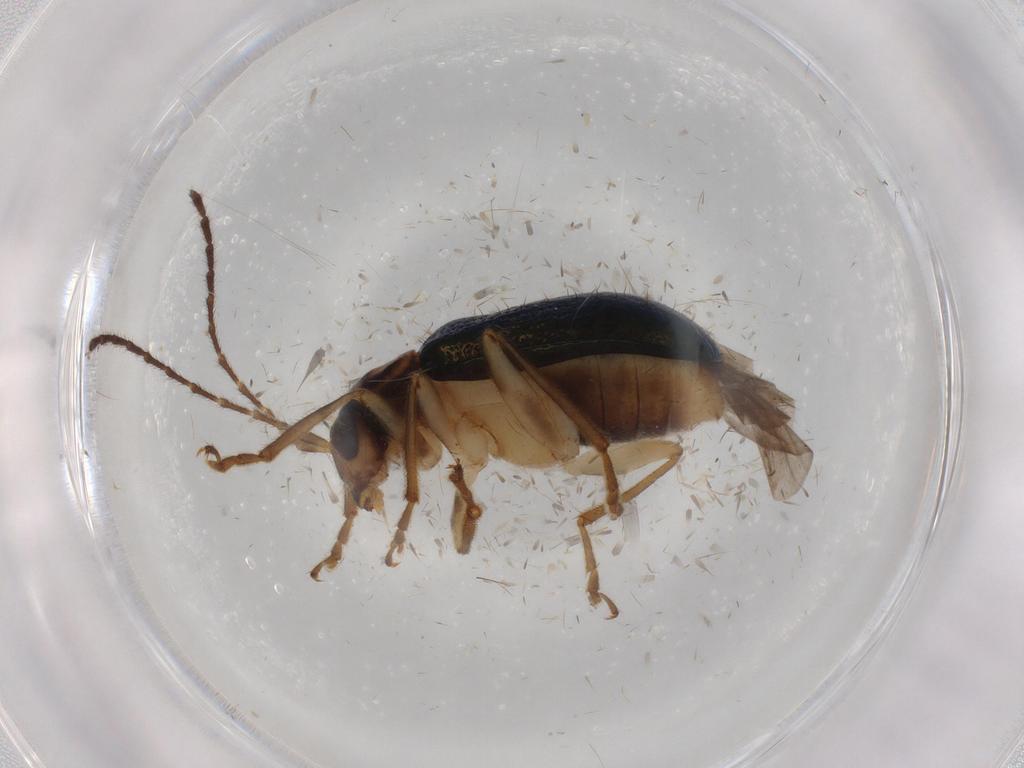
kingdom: Animalia
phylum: Arthropoda
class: Insecta
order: Coleoptera
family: Chrysomelidae
